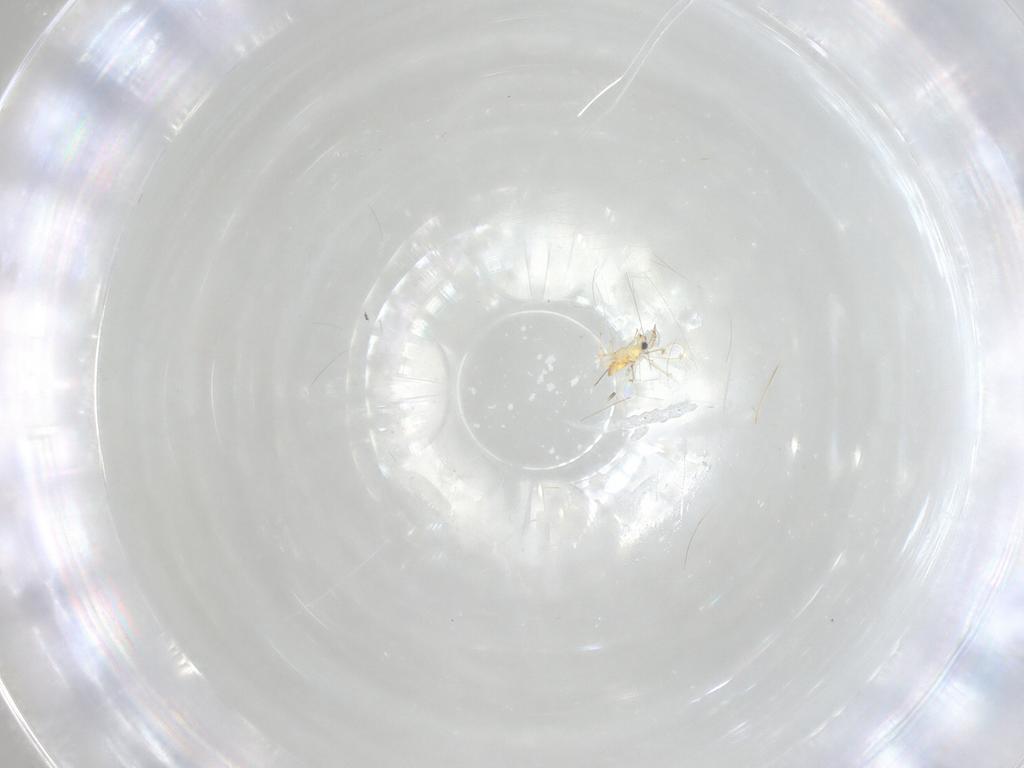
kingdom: Animalia
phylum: Arthropoda
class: Insecta
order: Hymenoptera
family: Trichogrammatidae
